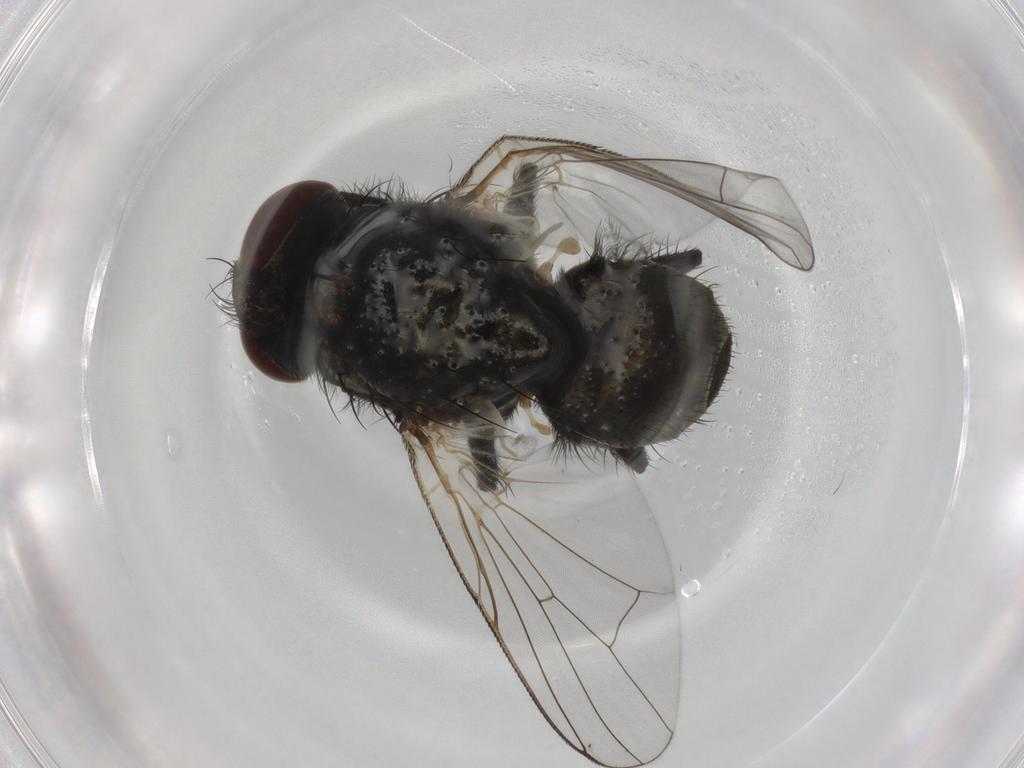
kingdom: Animalia
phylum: Arthropoda
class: Insecta
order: Diptera
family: Muscidae
